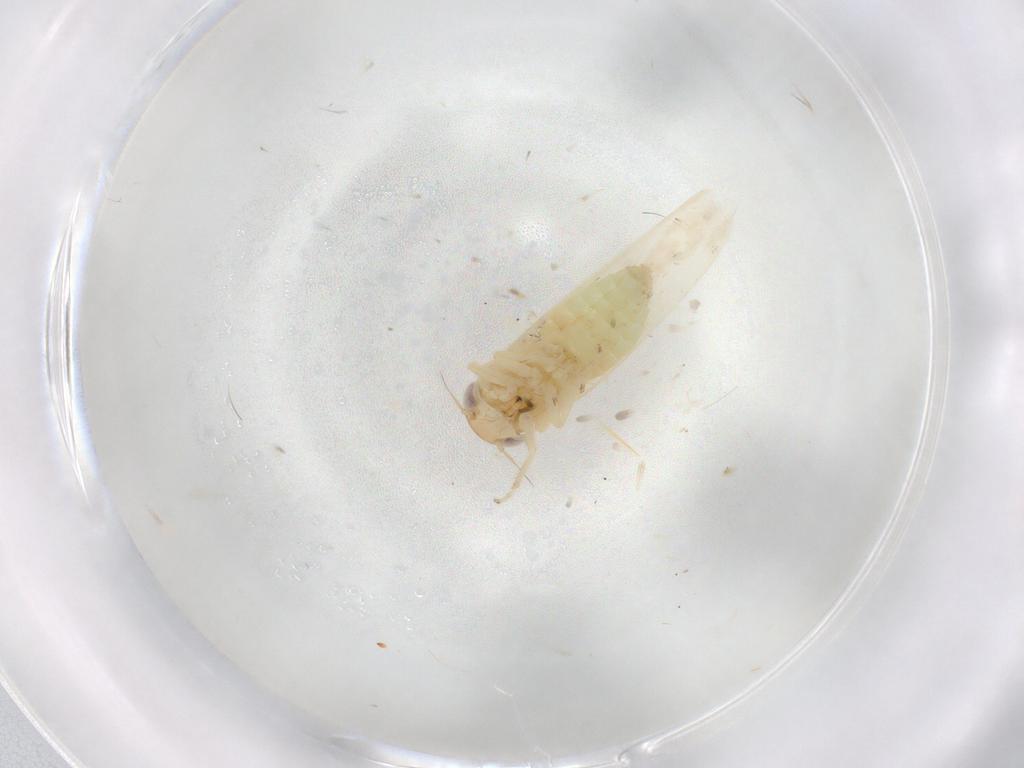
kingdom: Animalia
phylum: Arthropoda
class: Insecta
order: Hemiptera
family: Cicadellidae
